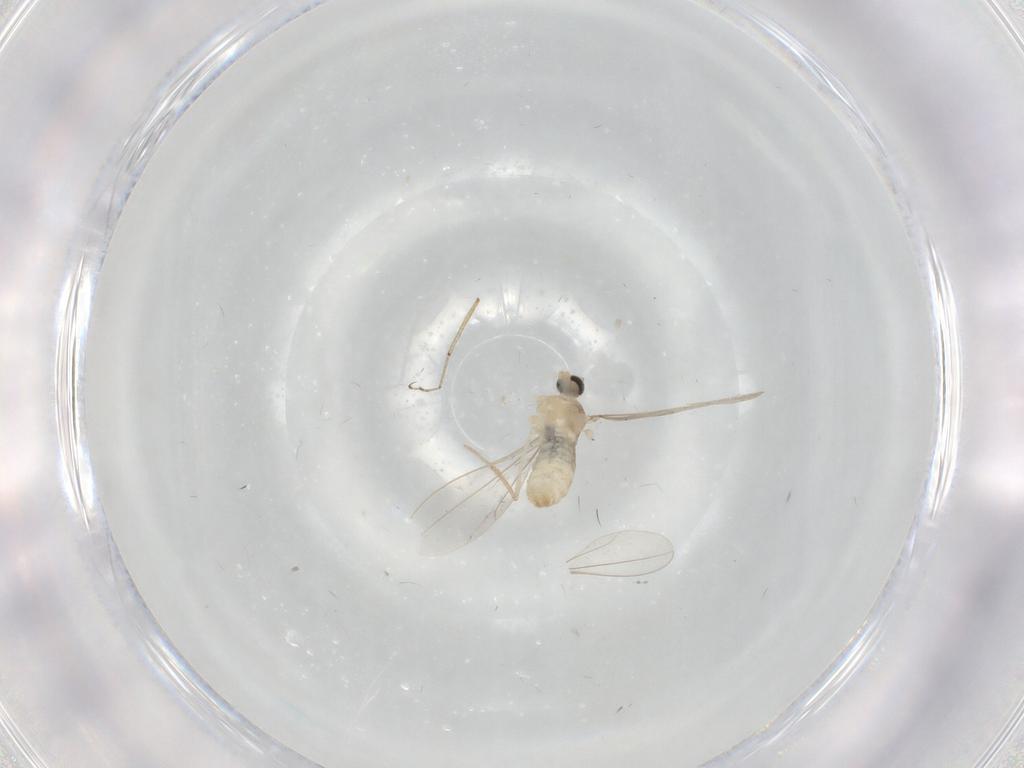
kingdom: Animalia
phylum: Arthropoda
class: Insecta
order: Diptera
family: Cecidomyiidae
